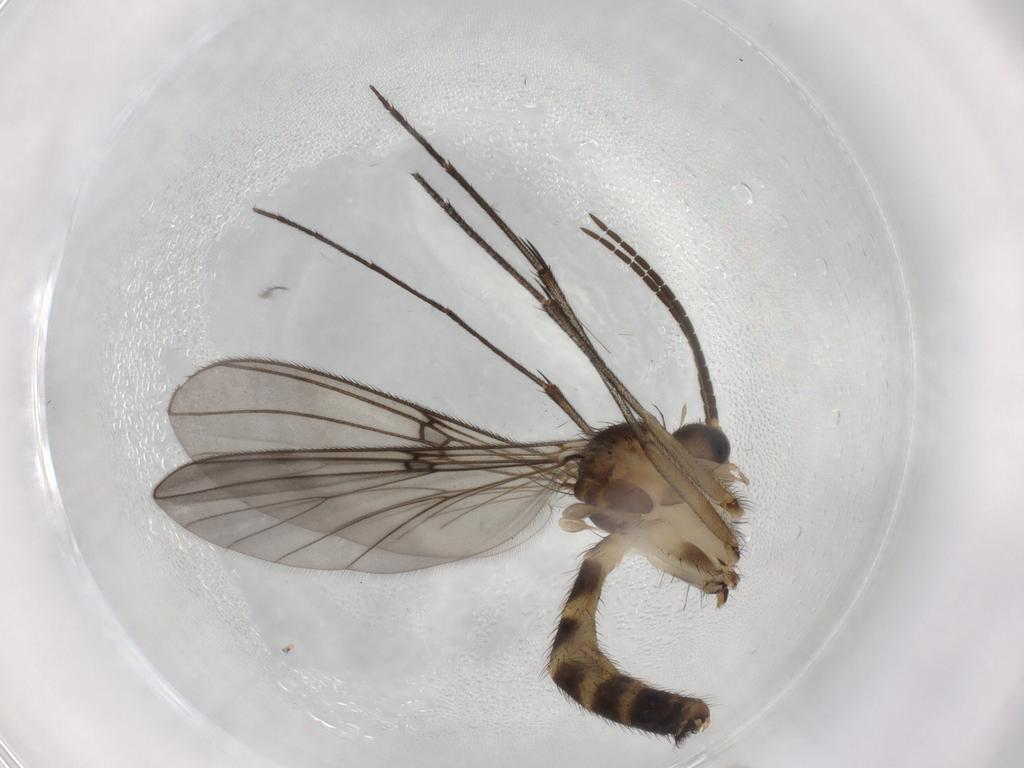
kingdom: Animalia
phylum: Arthropoda
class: Insecta
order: Diptera
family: Mycetophilidae
